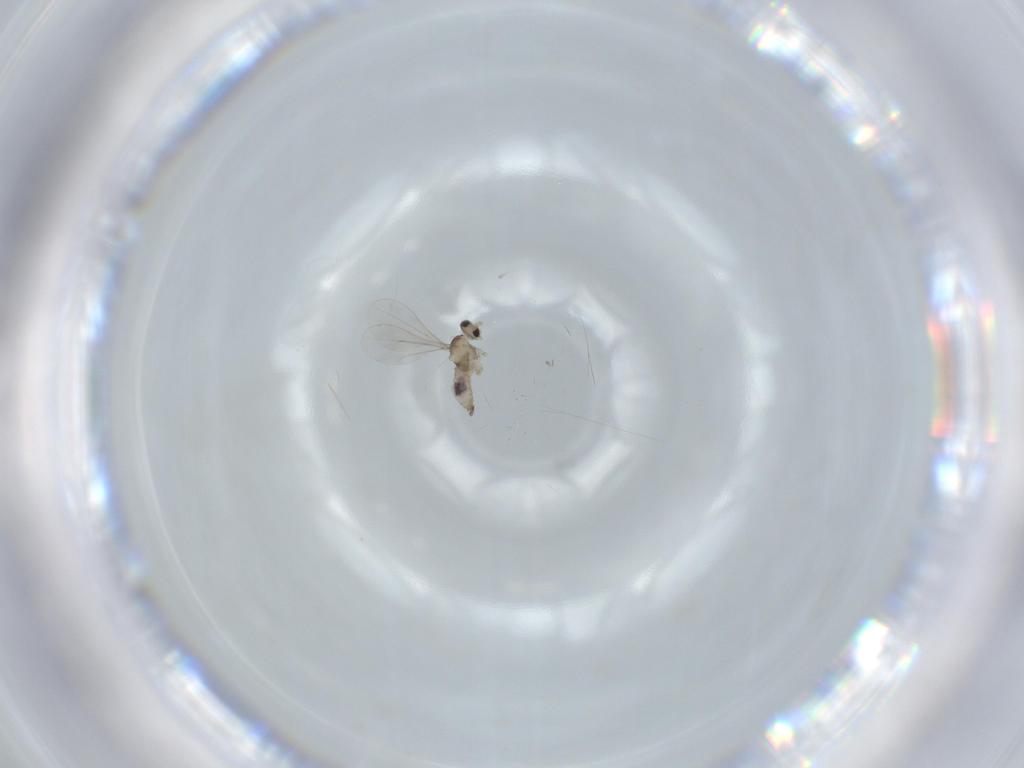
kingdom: Animalia
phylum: Arthropoda
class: Insecta
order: Diptera
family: Cecidomyiidae
